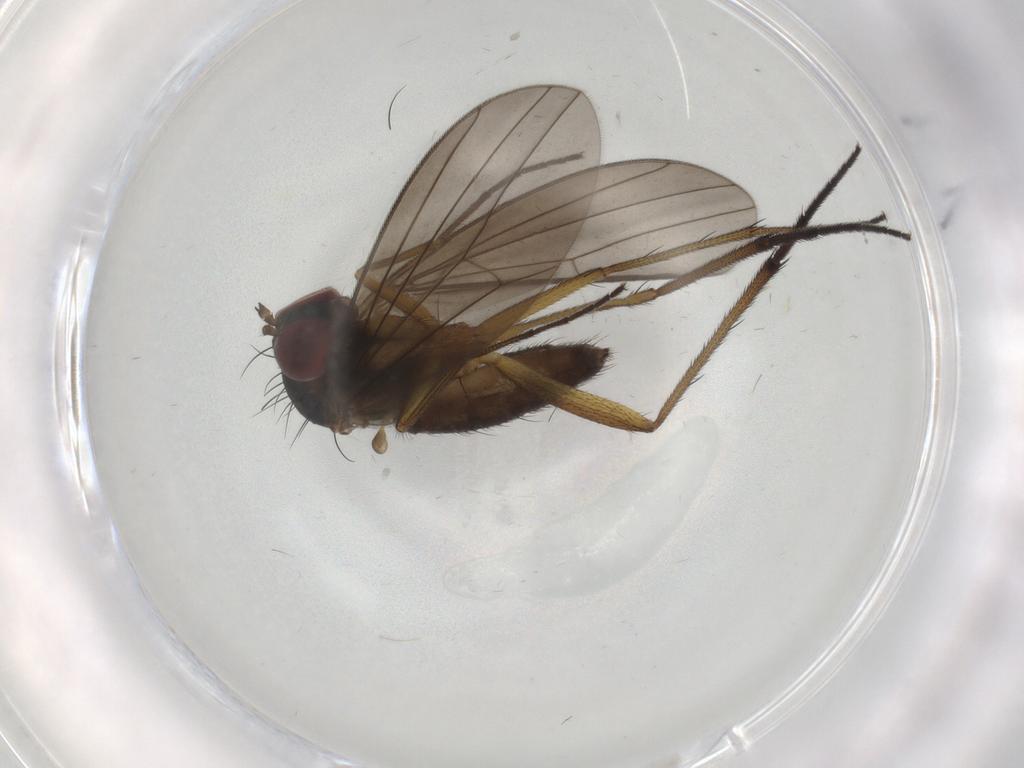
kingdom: Animalia
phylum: Arthropoda
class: Insecta
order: Diptera
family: Dolichopodidae
